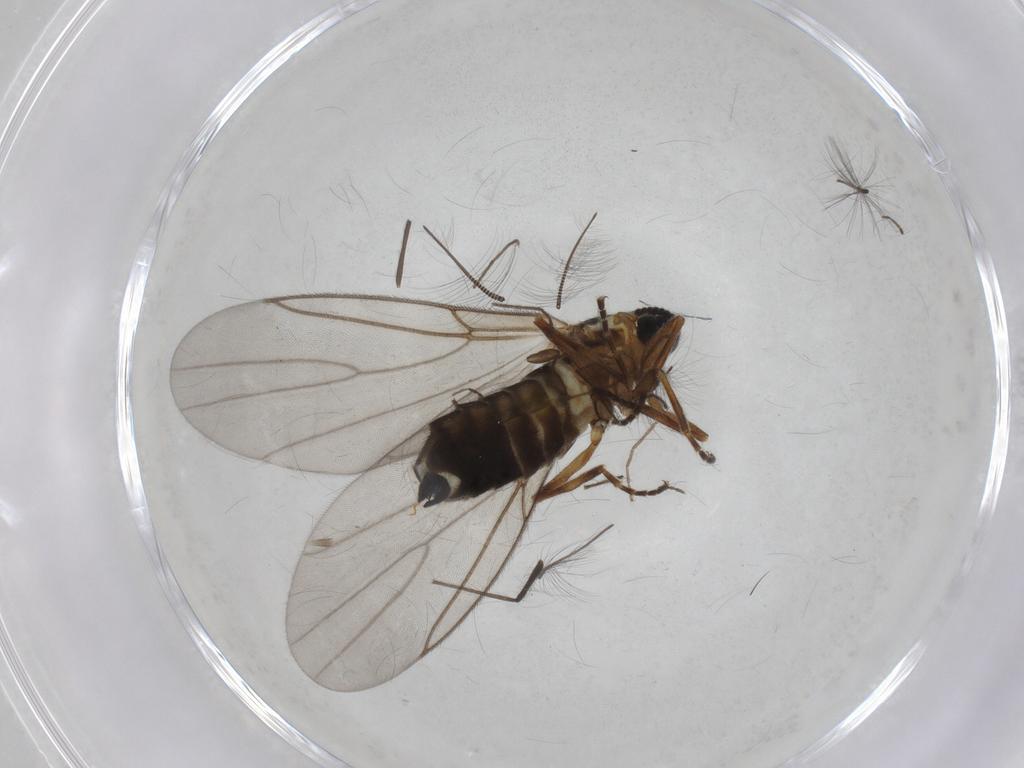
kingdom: Animalia
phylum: Arthropoda
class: Insecta
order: Diptera
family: Scatopsidae
